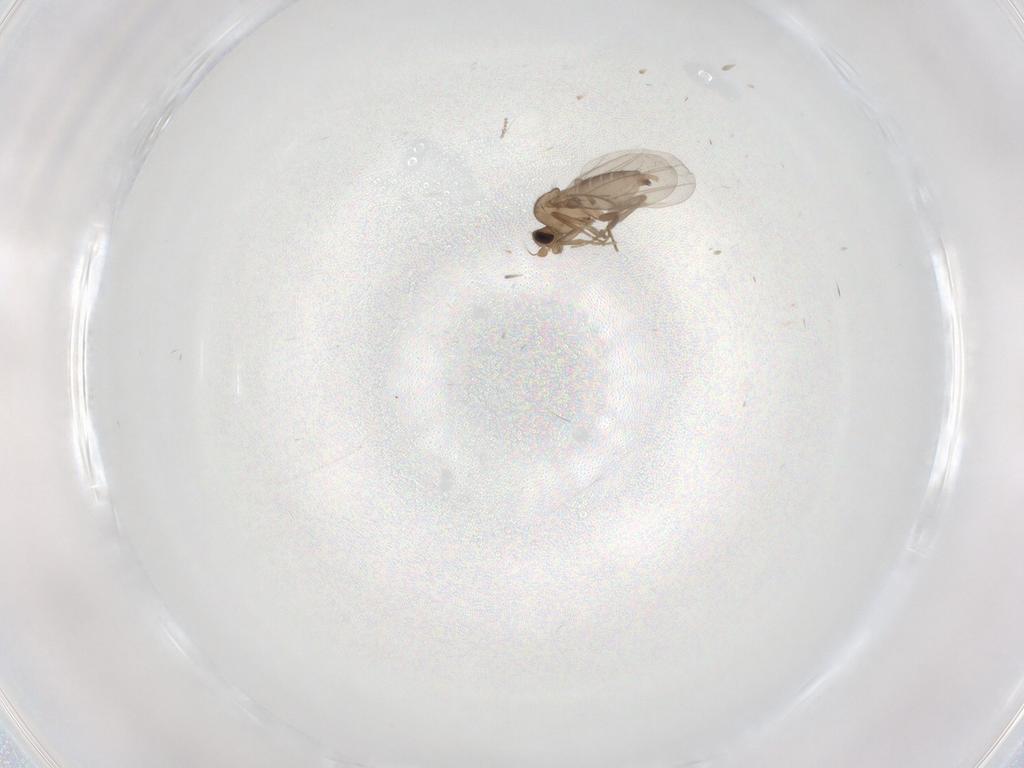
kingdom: Animalia
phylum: Arthropoda
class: Insecta
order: Diptera
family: Cecidomyiidae
